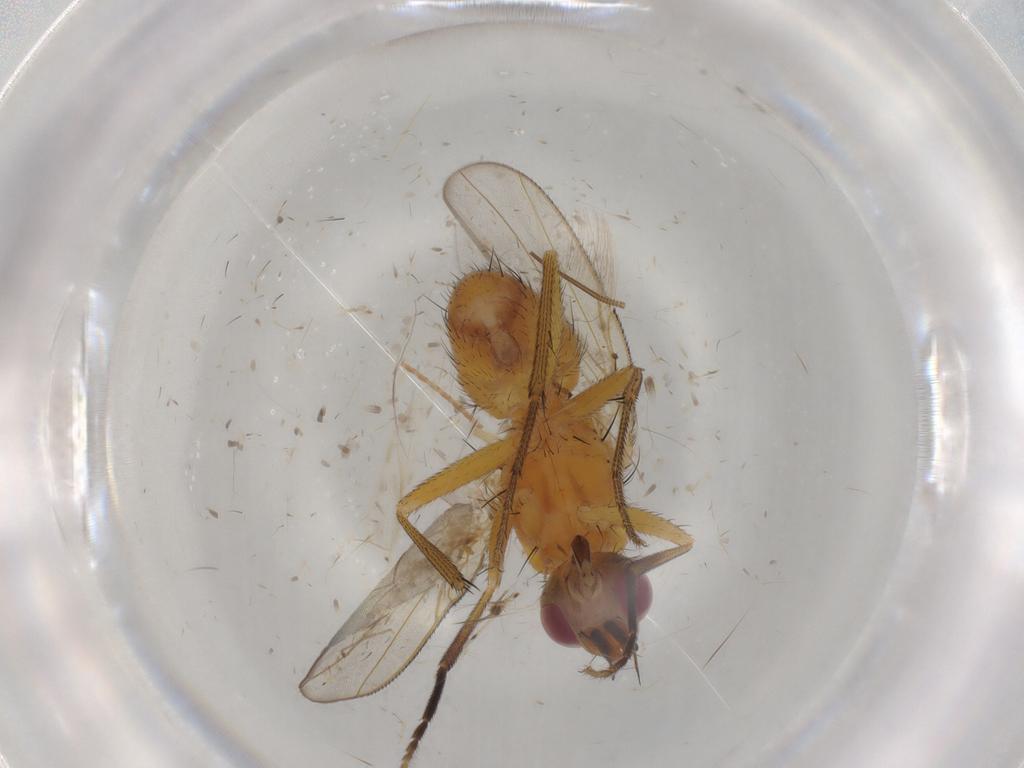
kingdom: Animalia
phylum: Arthropoda
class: Insecta
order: Diptera
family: Muscidae
